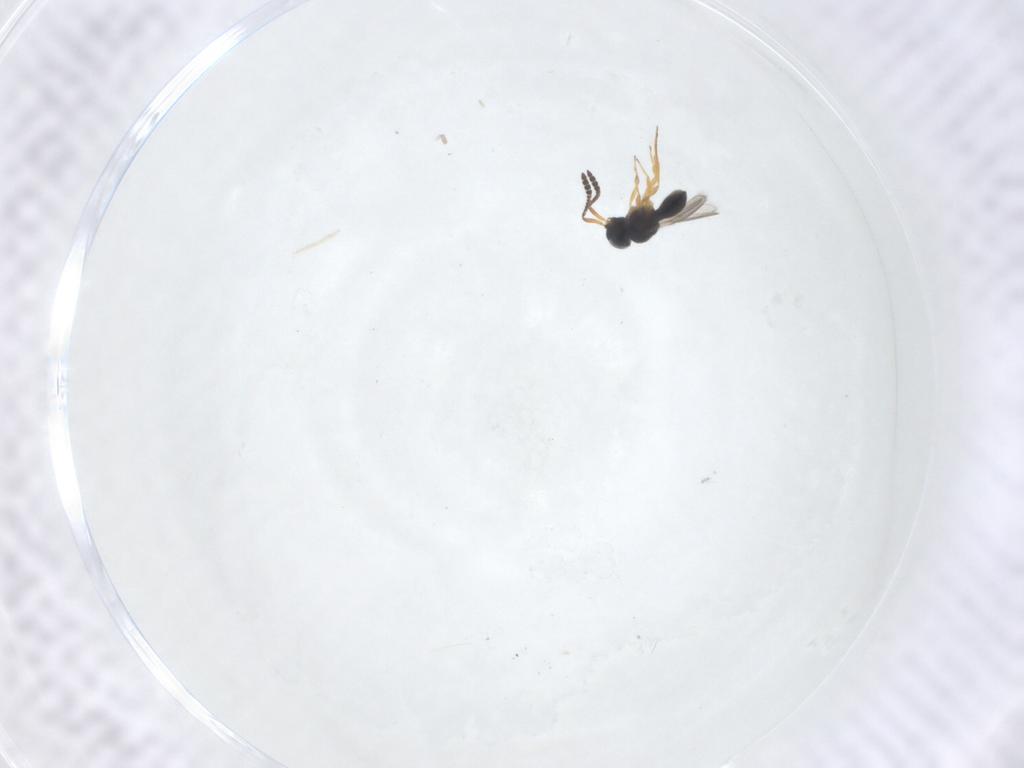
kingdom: Animalia
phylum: Arthropoda
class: Insecta
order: Hymenoptera
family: Scelionidae
